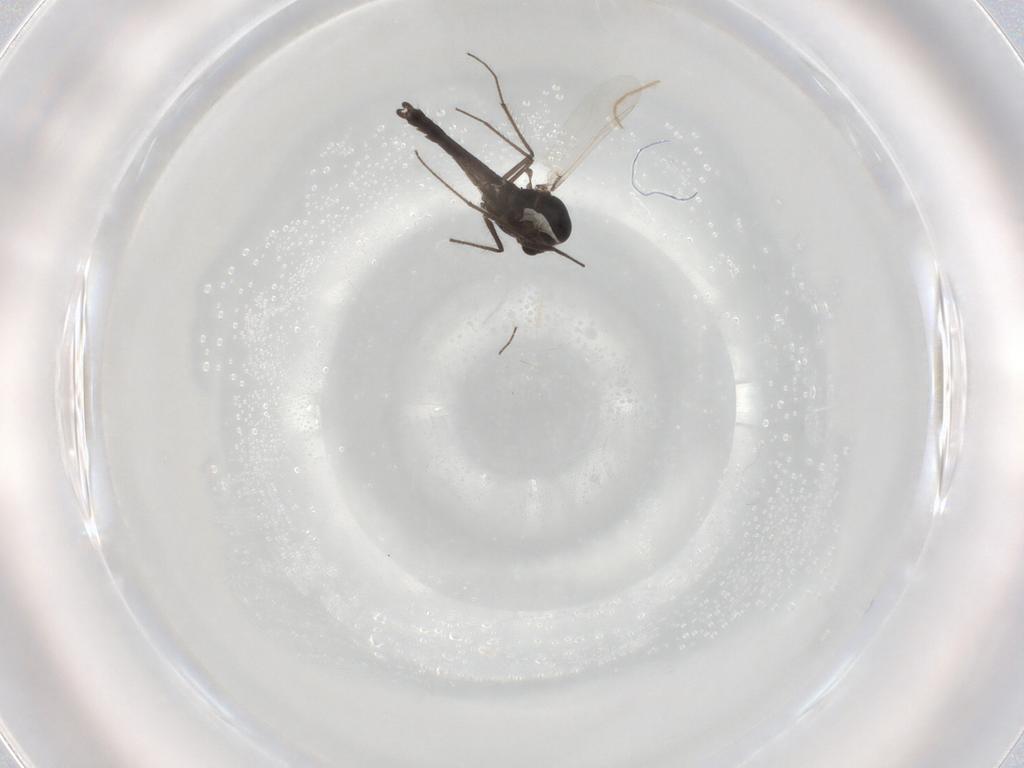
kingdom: Animalia
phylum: Arthropoda
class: Insecta
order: Diptera
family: Chironomidae
